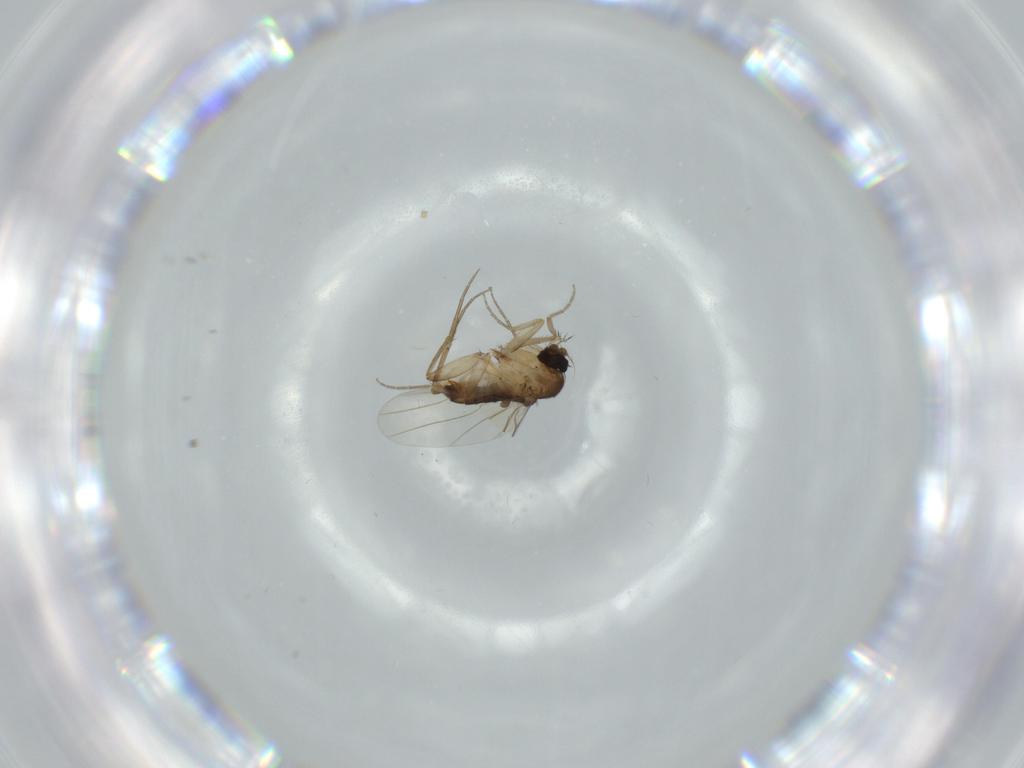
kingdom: Animalia
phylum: Arthropoda
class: Insecta
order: Diptera
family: Phoridae
